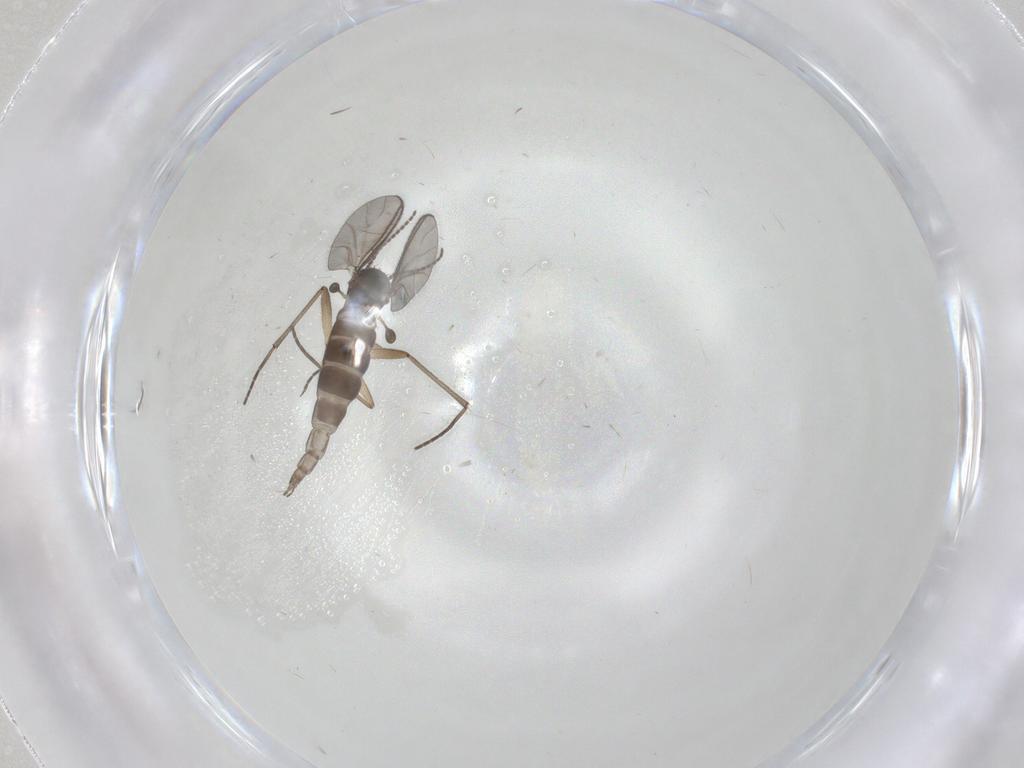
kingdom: Animalia
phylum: Arthropoda
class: Insecta
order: Diptera
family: Sciaridae
